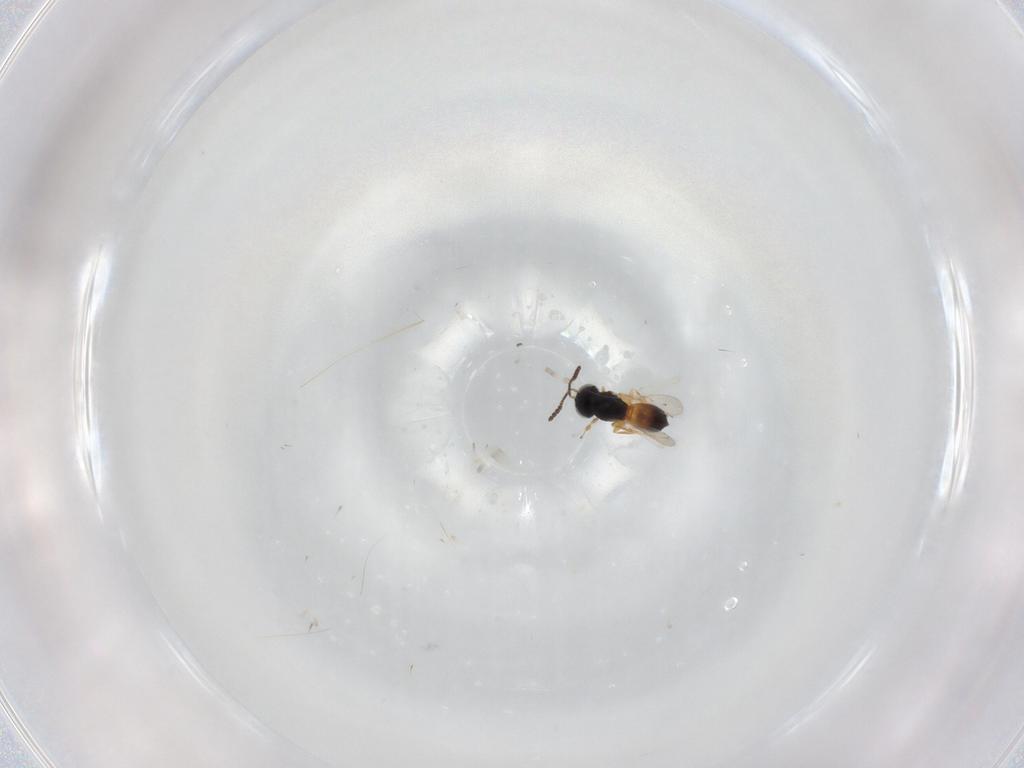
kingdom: Animalia
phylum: Arthropoda
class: Insecta
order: Hymenoptera
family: Scelionidae
